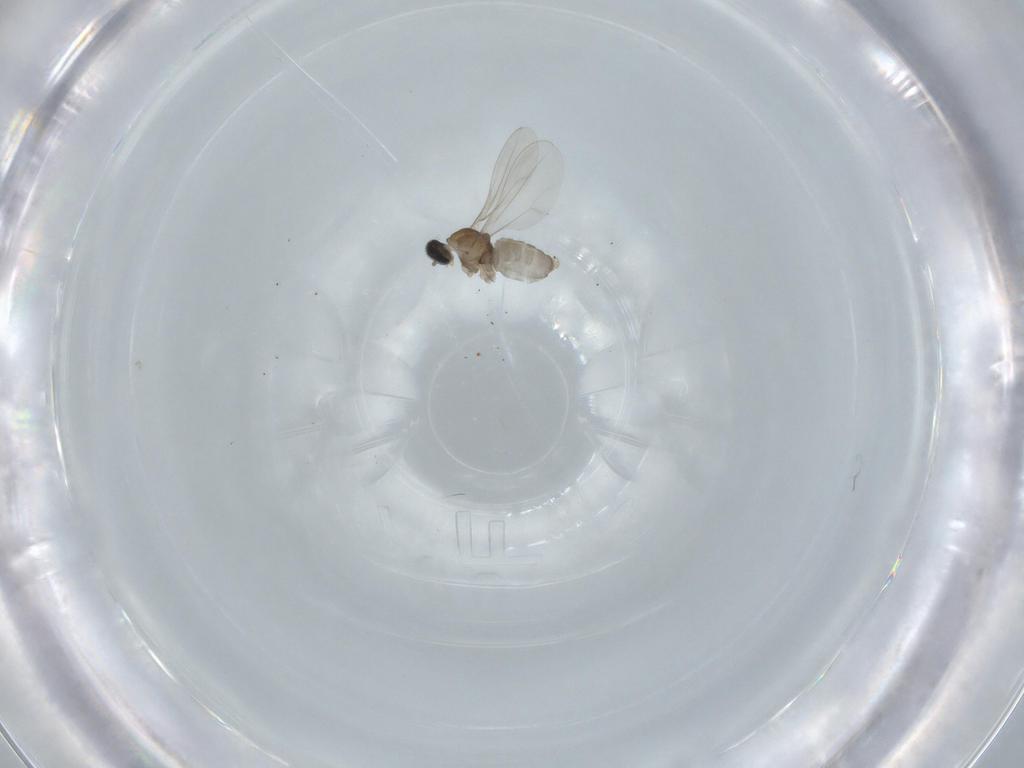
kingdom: Animalia
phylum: Arthropoda
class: Insecta
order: Diptera
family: Cecidomyiidae
